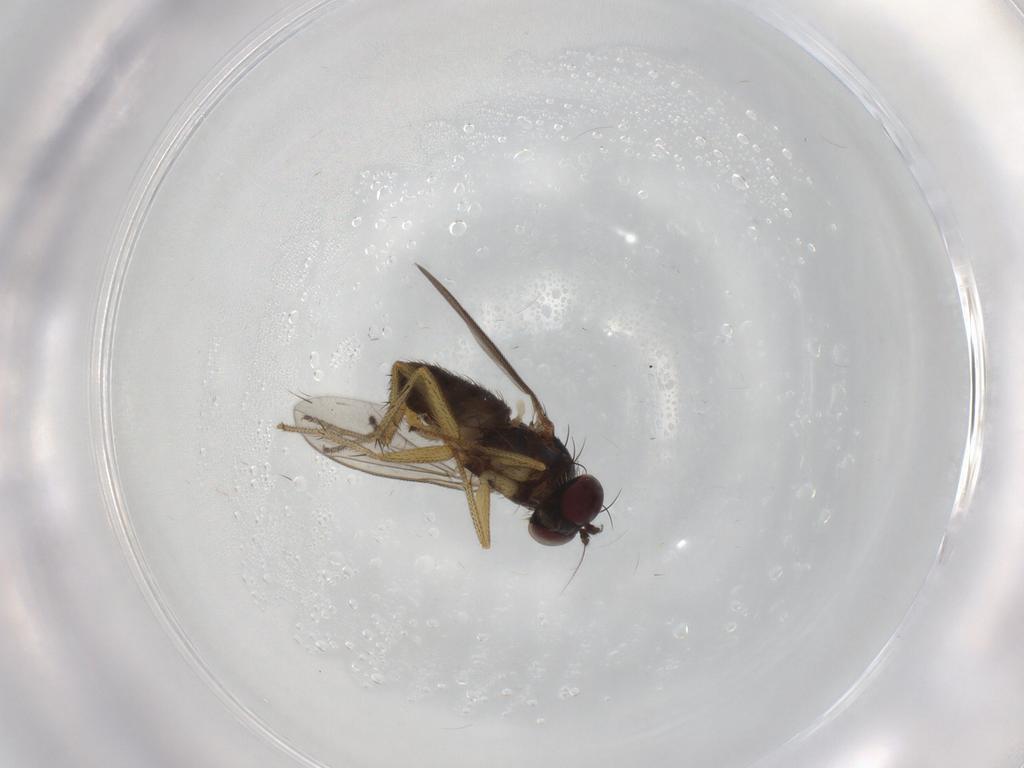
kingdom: Animalia
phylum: Arthropoda
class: Insecta
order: Diptera
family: Dolichopodidae
